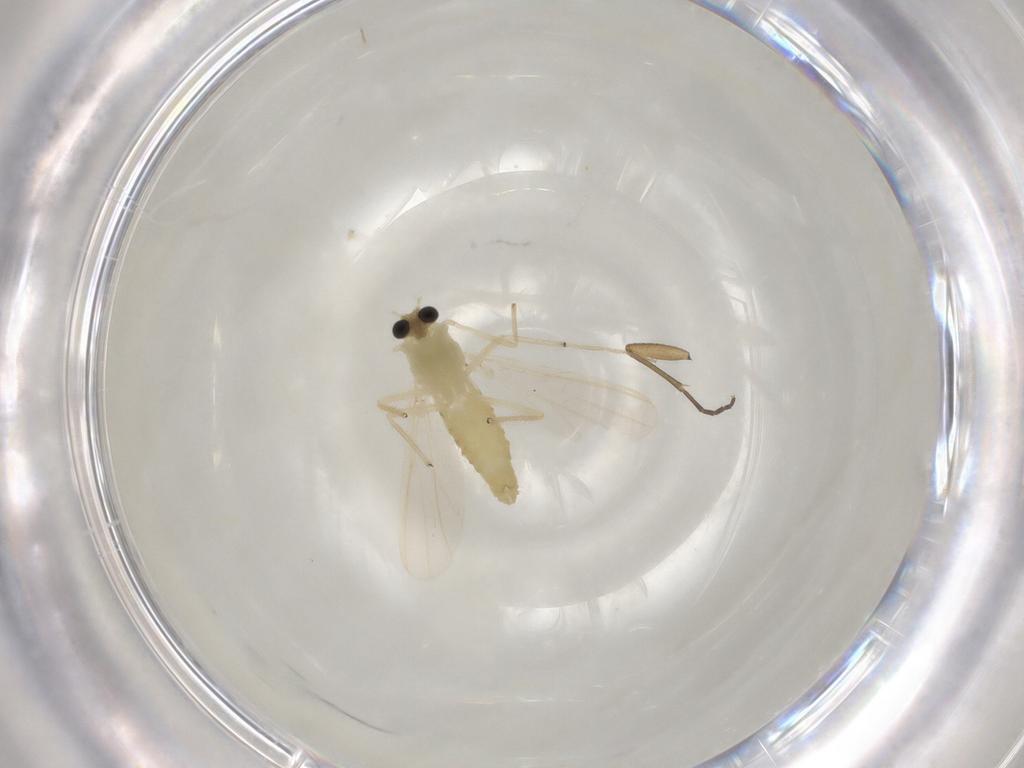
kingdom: Animalia
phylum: Arthropoda
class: Insecta
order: Diptera
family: Chironomidae
